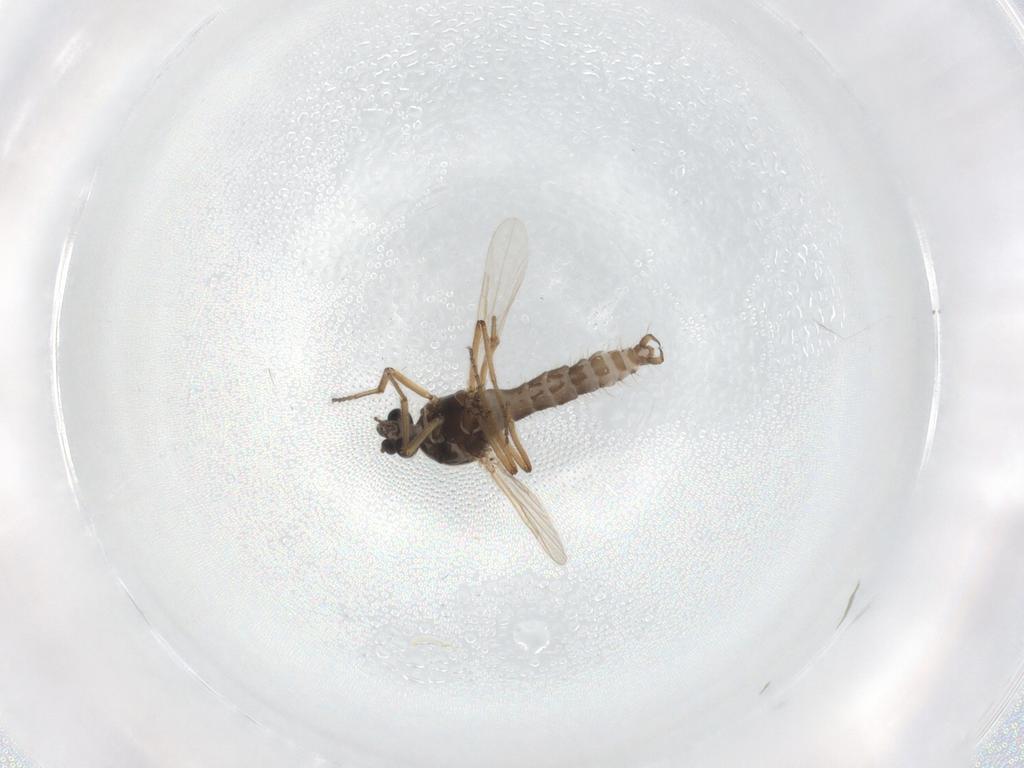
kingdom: Animalia
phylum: Arthropoda
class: Insecta
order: Diptera
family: Ceratopogonidae
